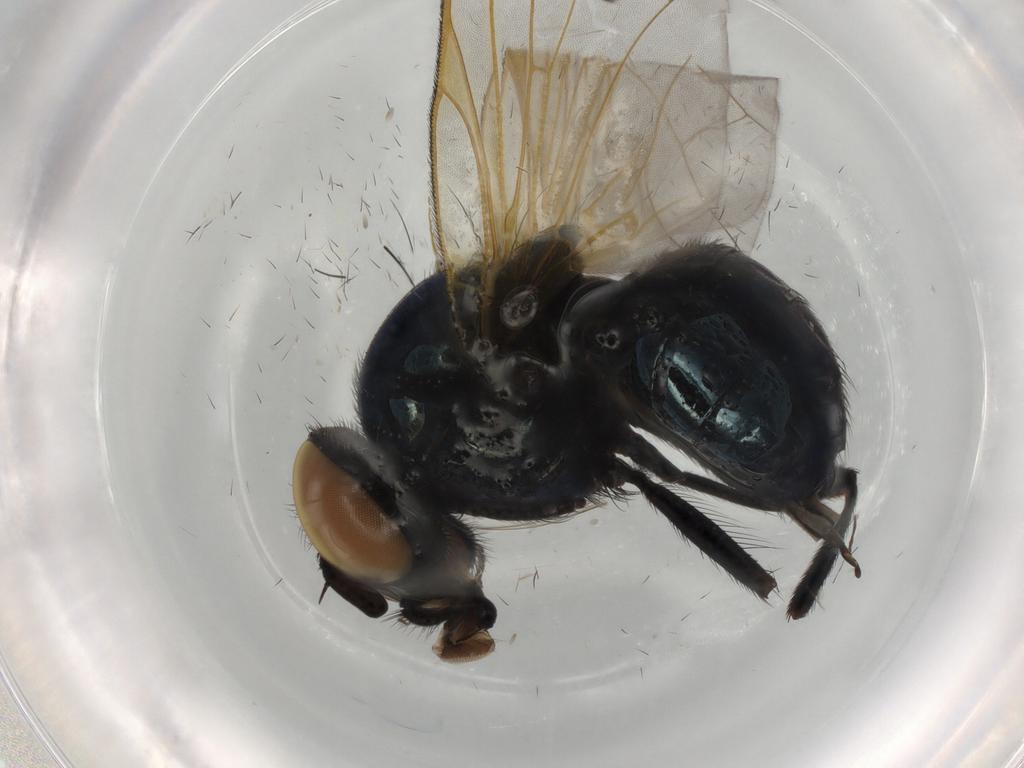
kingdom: Animalia
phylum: Arthropoda
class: Insecta
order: Diptera
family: Lonchaeidae
